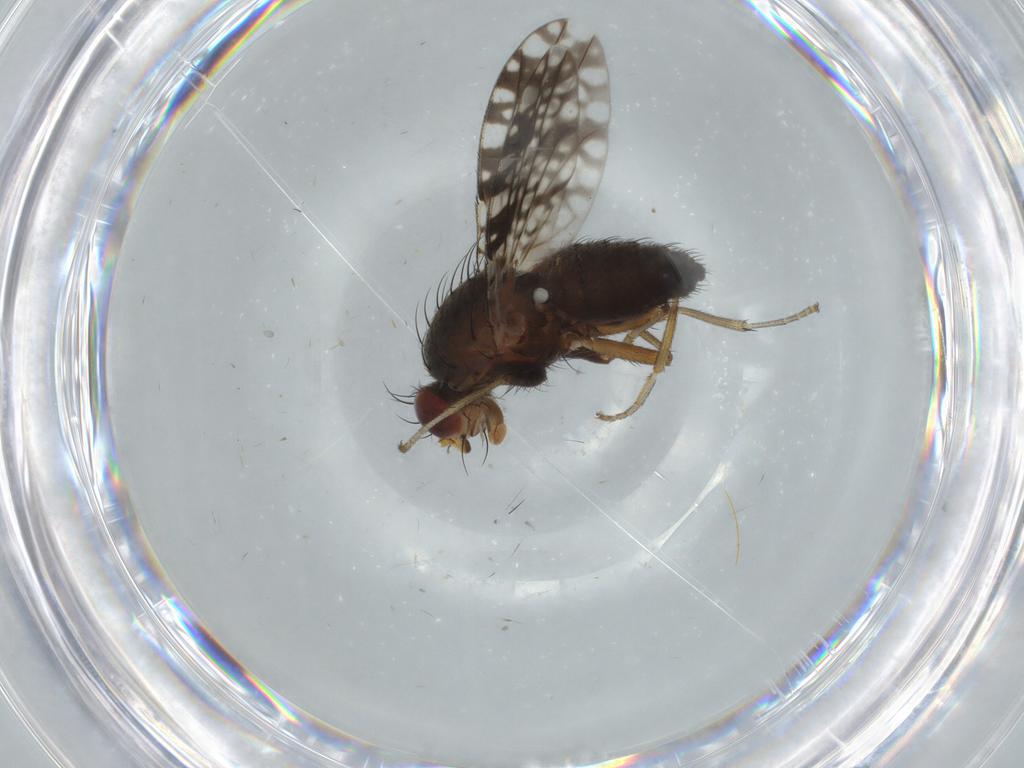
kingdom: Animalia
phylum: Arthropoda
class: Insecta
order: Diptera
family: Tephritidae
